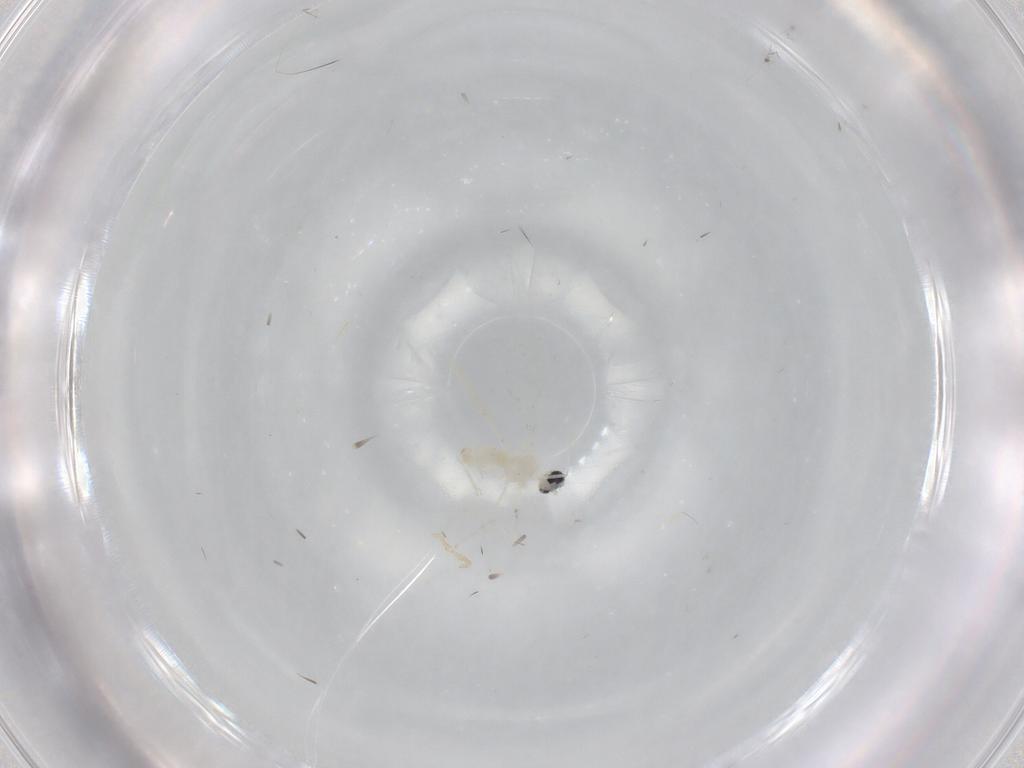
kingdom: Animalia
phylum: Arthropoda
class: Insecta
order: Diptera
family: Cecidomyiidae
